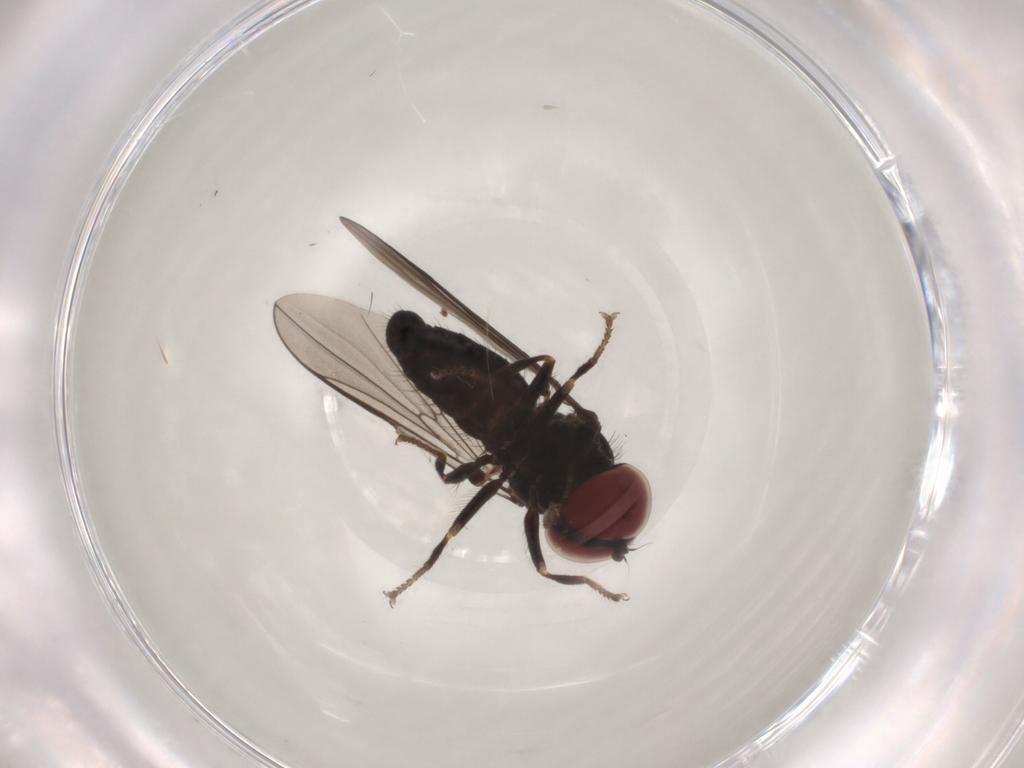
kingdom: Animalia
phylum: Arthropoda
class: Insecta
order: Diptera
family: Pipunculidae
